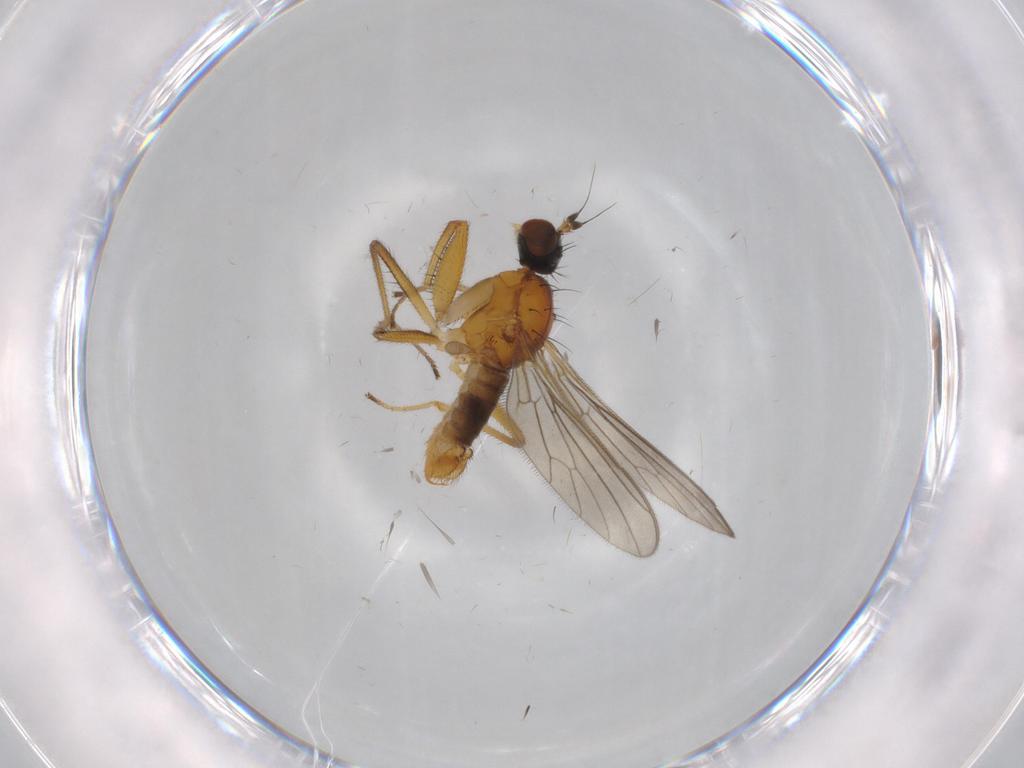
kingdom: Animalia
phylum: Arthropoda
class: Insecta
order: Diptera
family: Empididae
